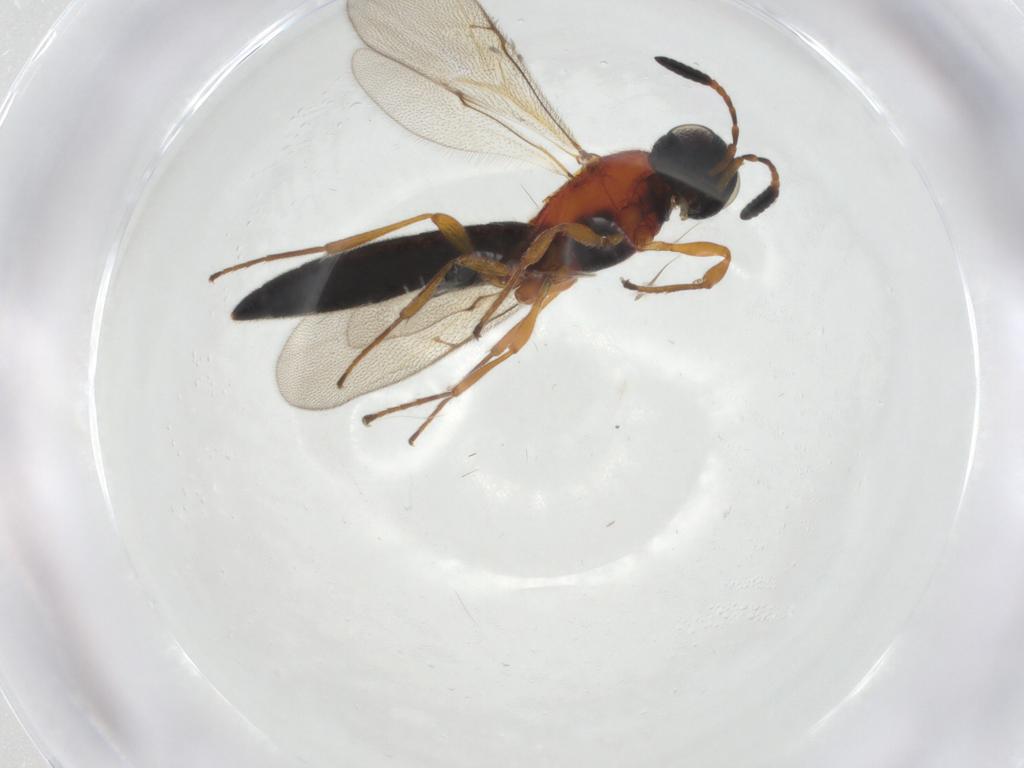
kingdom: Animalia
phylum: Arthropoda
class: Insecta
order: Hymenoptera
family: Scelionidae
